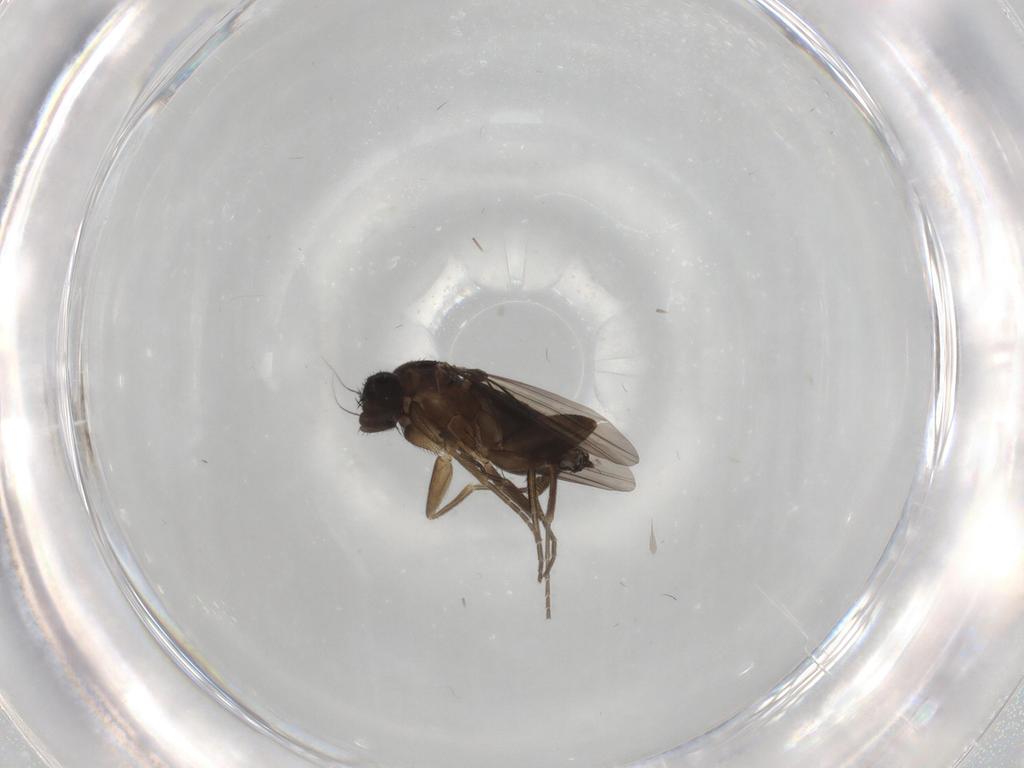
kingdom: Animalia
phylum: Arthropoda
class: Insecta
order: Diptera
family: Phoridae
